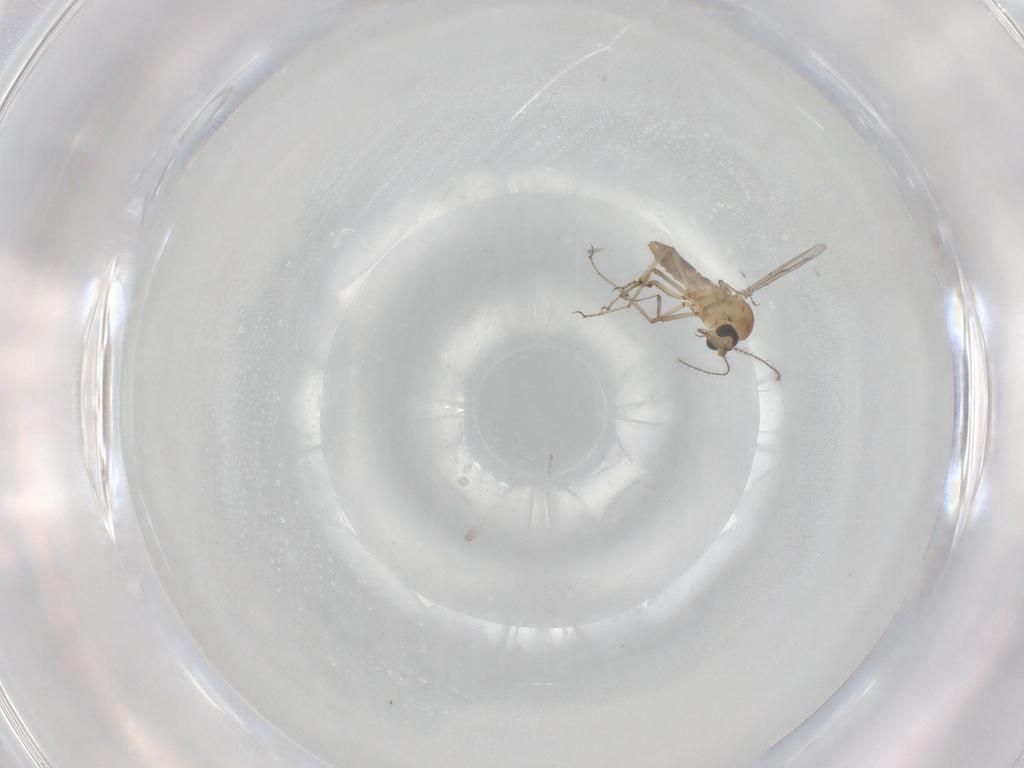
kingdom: Animalia
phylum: Arthropoda
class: Insecta
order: Diptera
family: Ceratopogonidae
